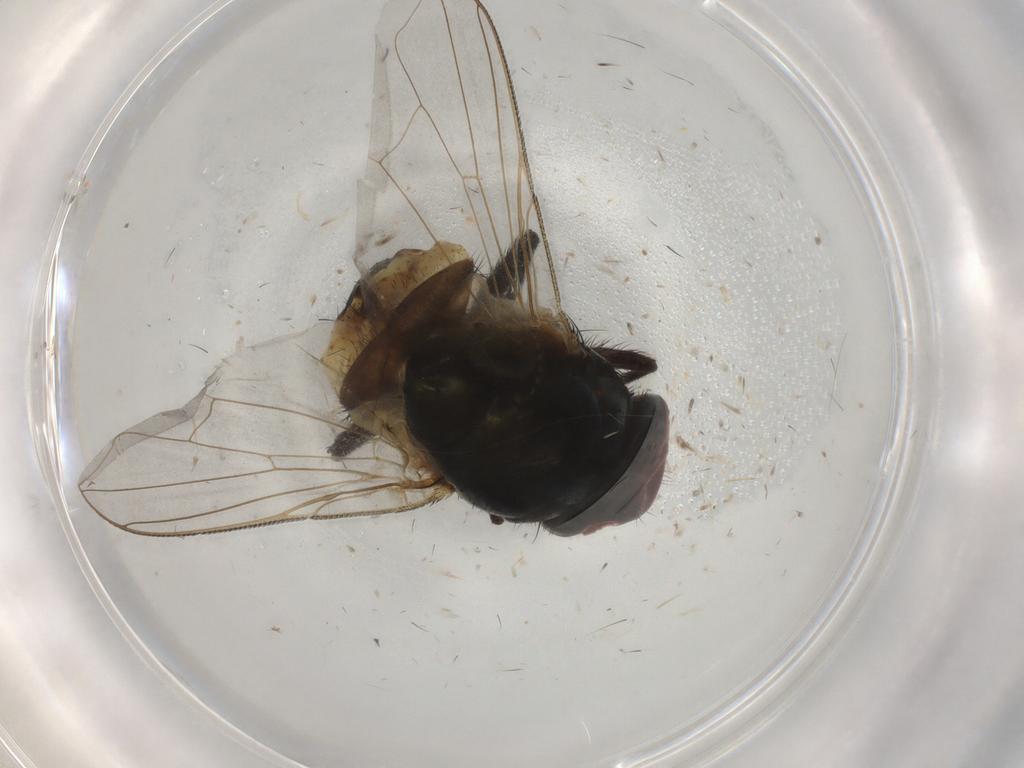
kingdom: Animalia
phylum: Arthropoda
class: Insecta
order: Diptera
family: Muscidae
